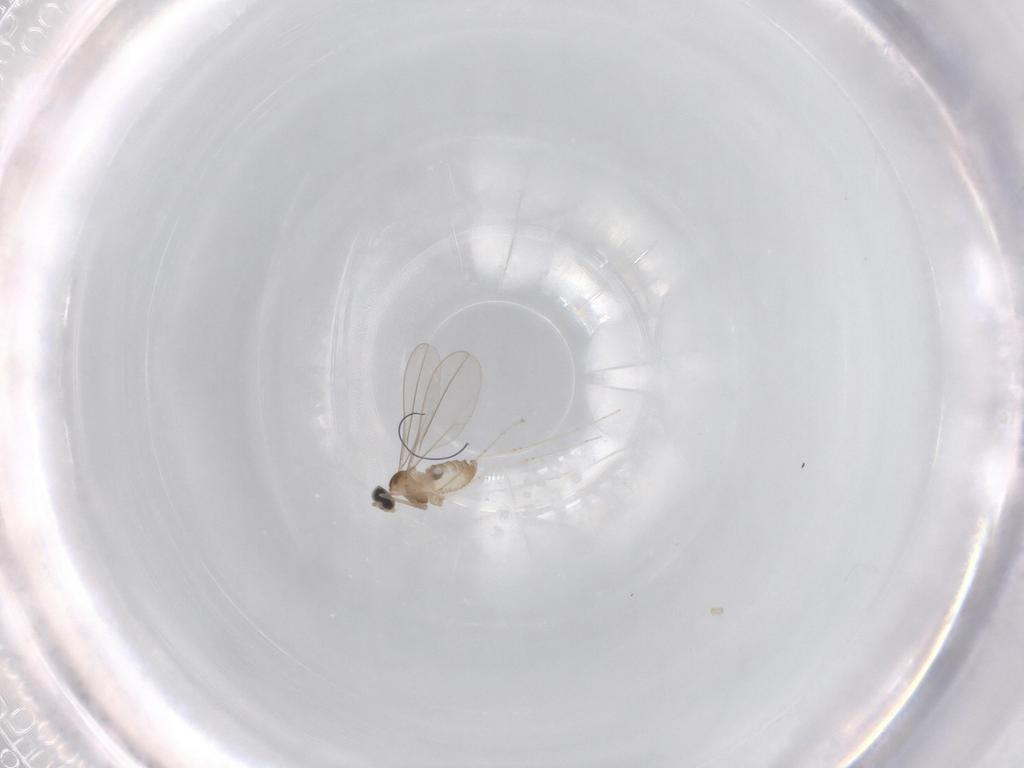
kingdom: Animalia
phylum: Arthropoda
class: Insecta
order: Diptera
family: Cecidomyiidae
